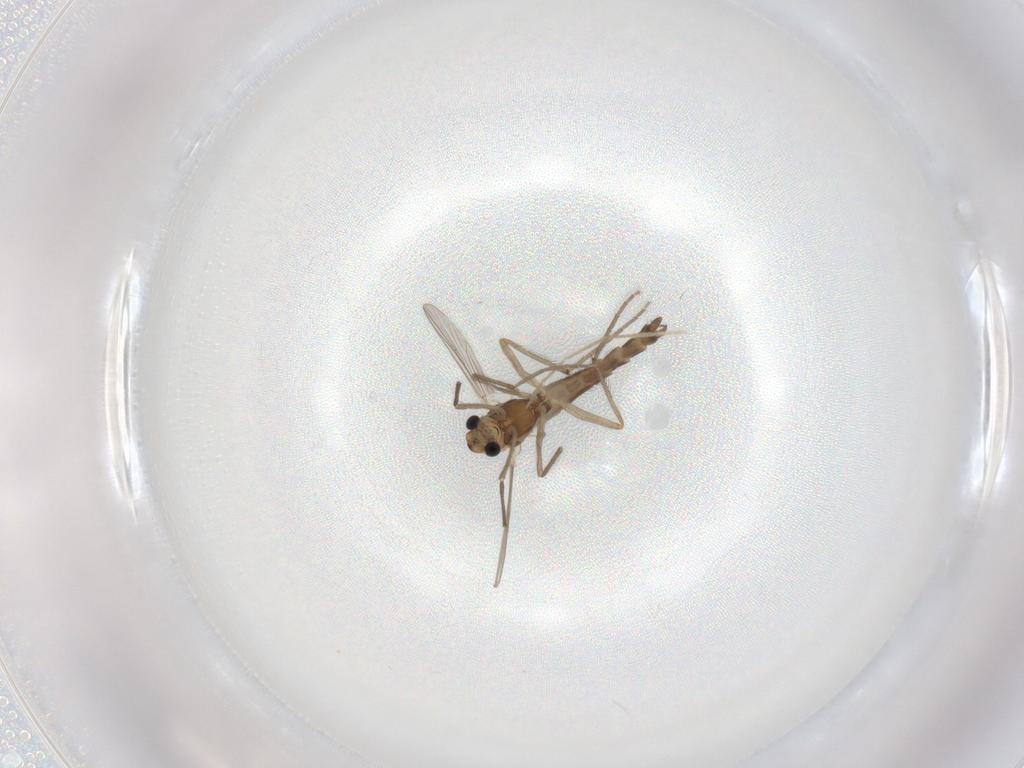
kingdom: Animalia
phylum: Arthropoda
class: Insecta
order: Diptera
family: Chironomidae
